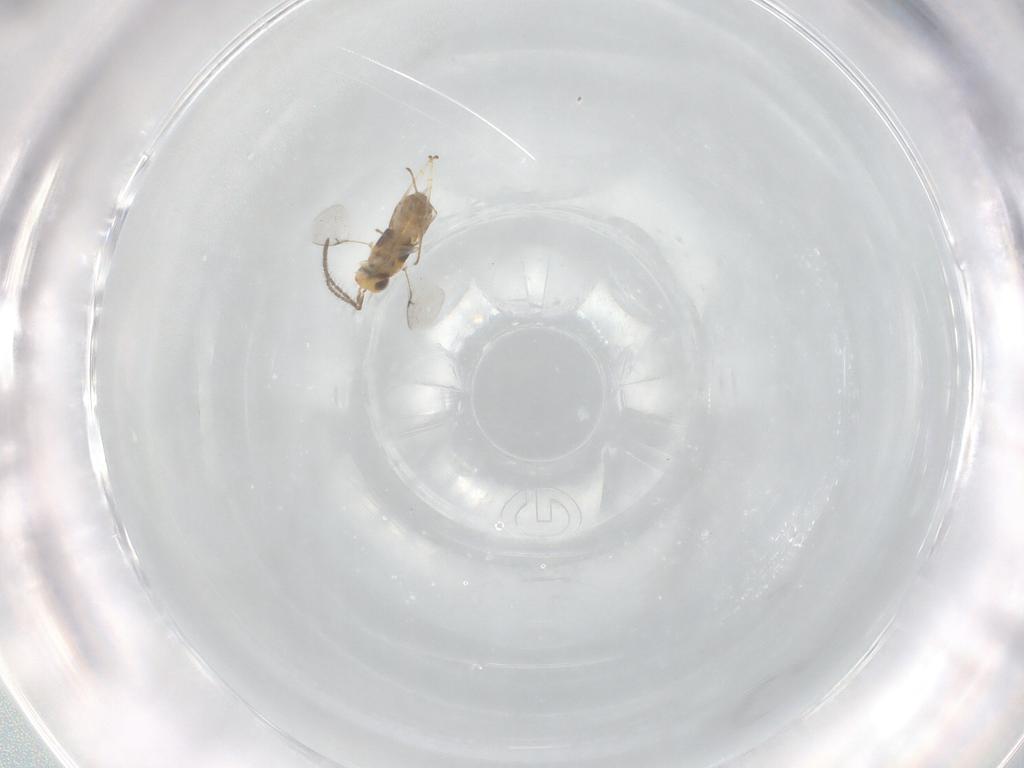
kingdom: Animalia
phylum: Arthropoda
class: Insecta
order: Hymenoptera
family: Encyrtidae
